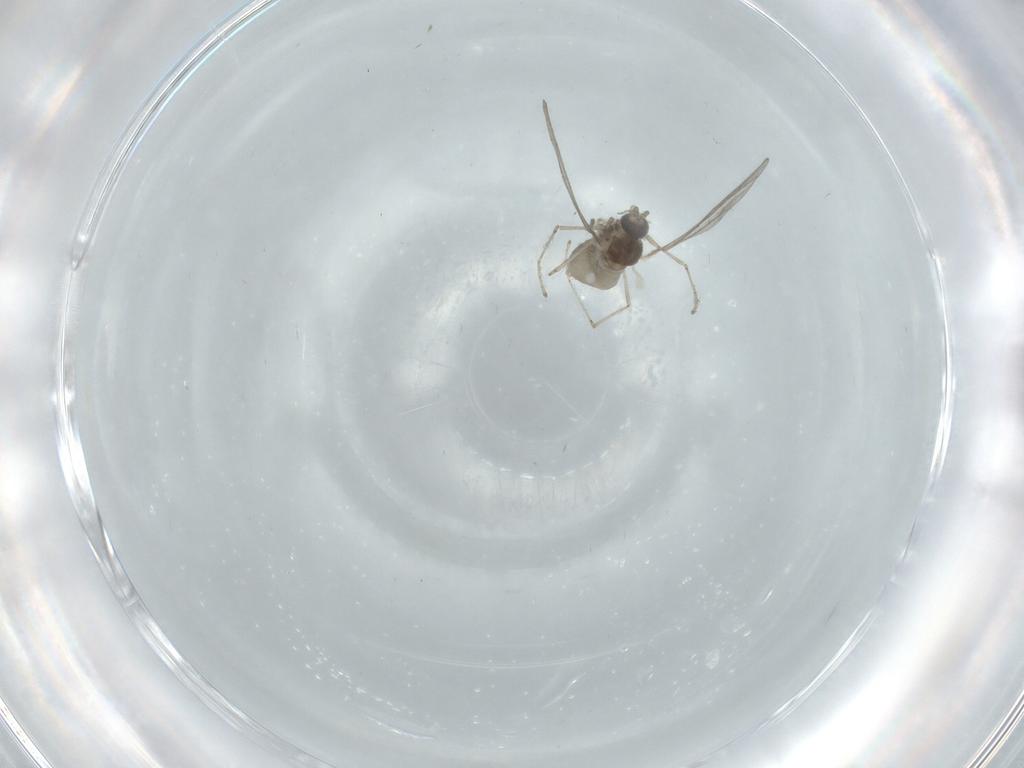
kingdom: Animalia
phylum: Arthropoda
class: Insecta
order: Diptera
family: Cecidomyiidae
